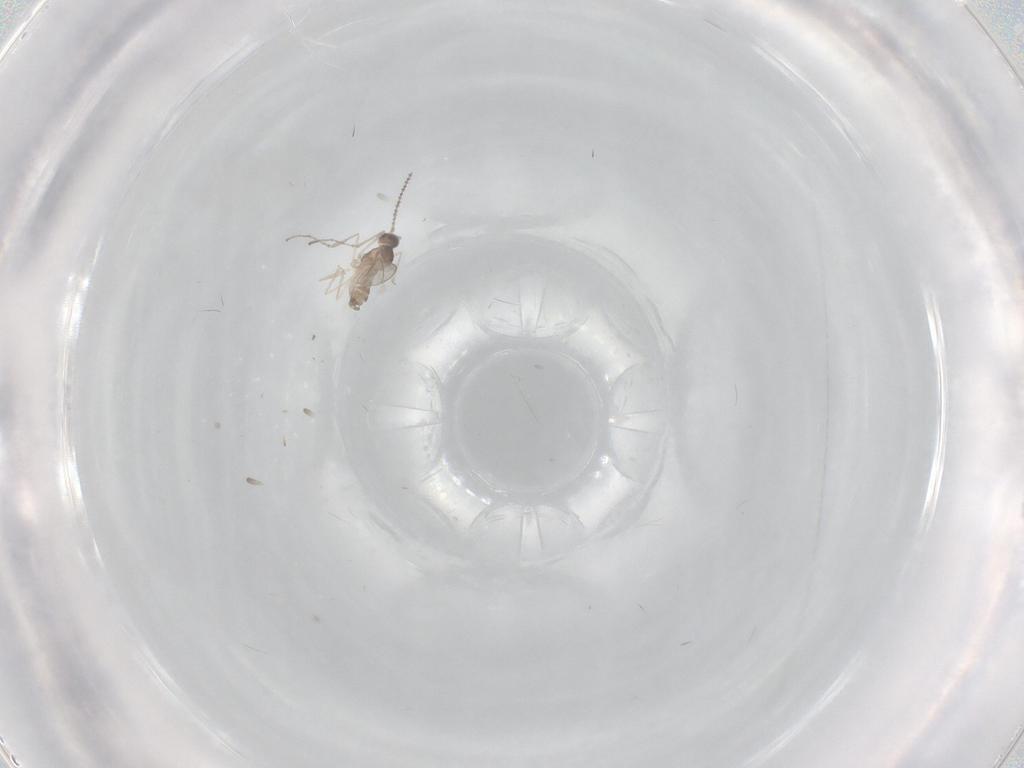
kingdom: Animalia
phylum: Arthropoda
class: Insecta
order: Diptera
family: Cecidomyiidae
